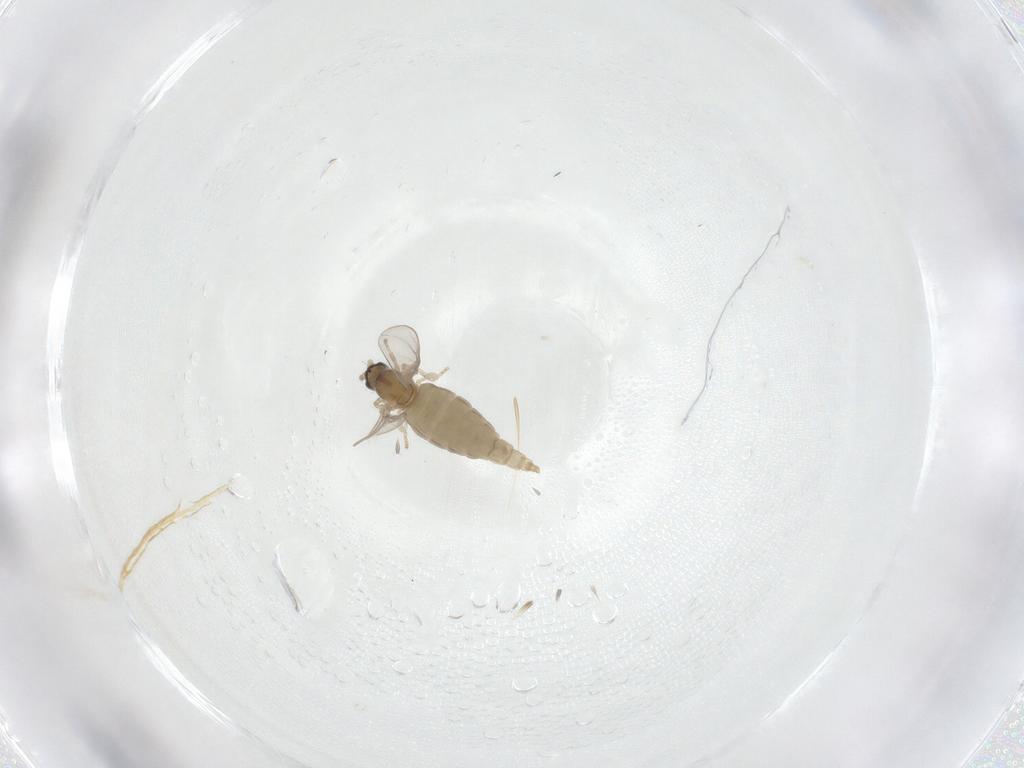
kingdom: Animalia
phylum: Arthropoda
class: Insecta
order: Diptera
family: Cecidomyiidae
